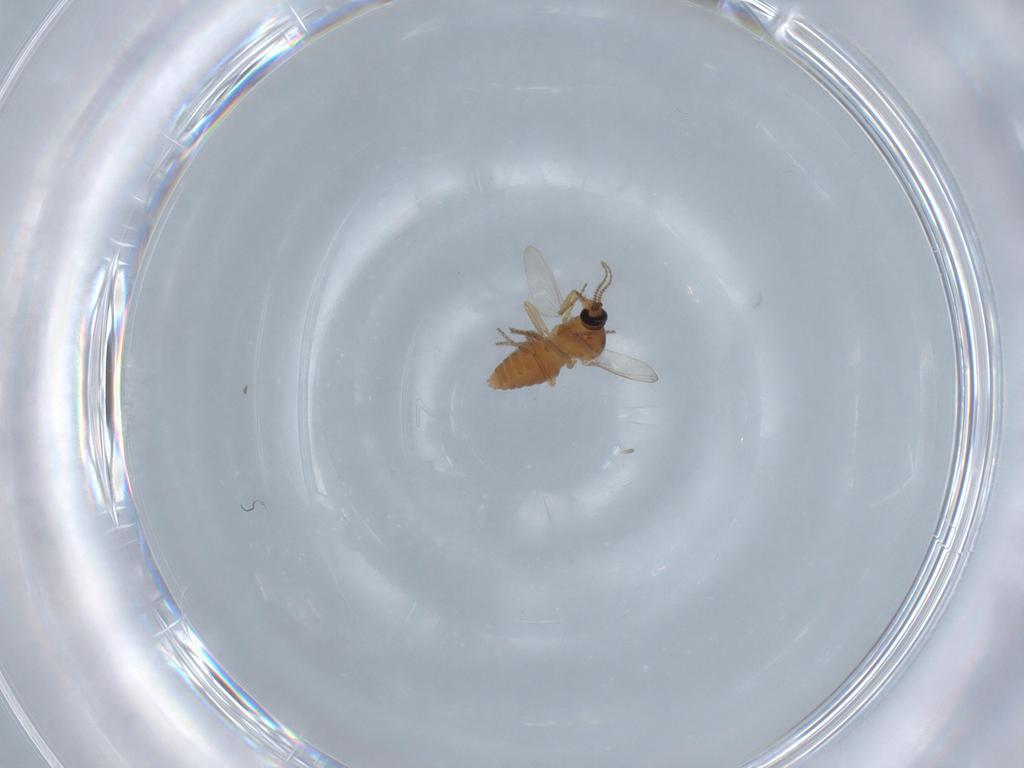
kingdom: Animalia
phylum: Arthropoda
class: Insecta
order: Diptera
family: Ceratopogonidae
